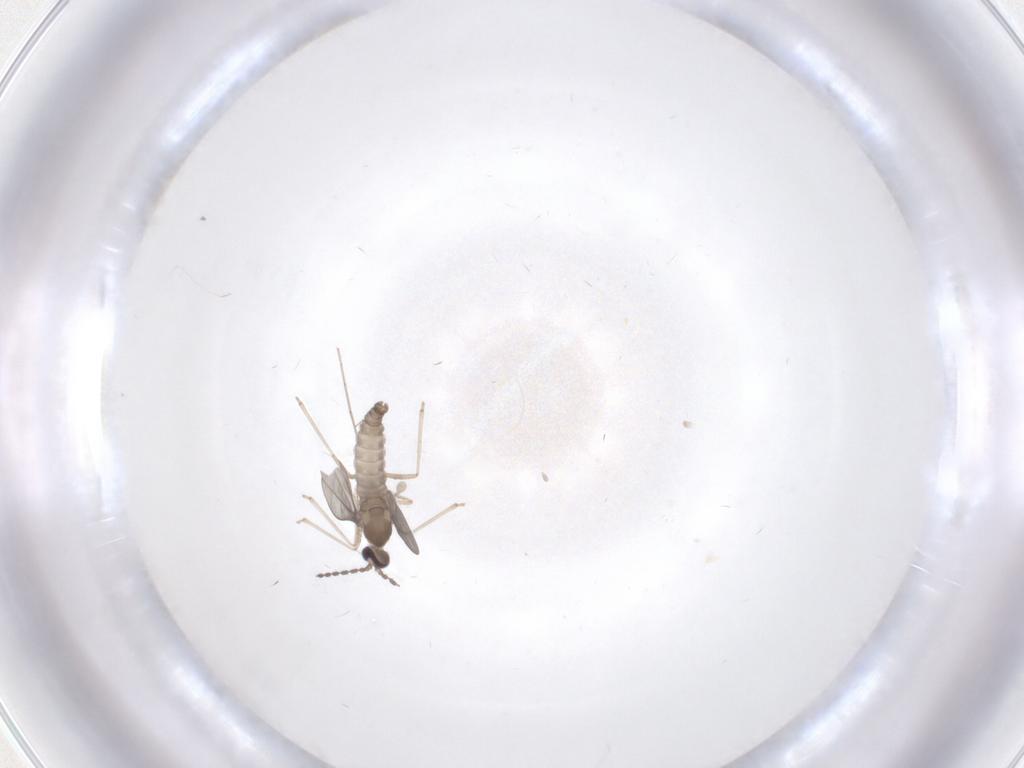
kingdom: Animalia
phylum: Arthropoda
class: Insecta
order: Diptera
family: Cecidomyiidae
